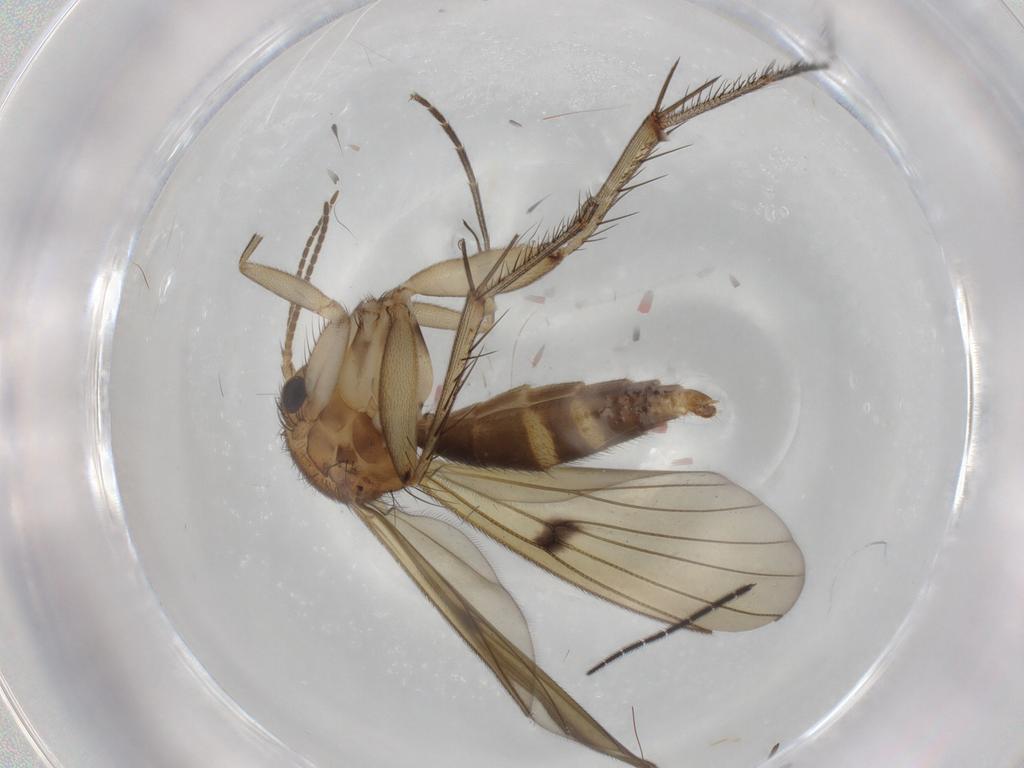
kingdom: Animalia
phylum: Arthropoda
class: Insecta
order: Diptera
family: Mycetophilidae
